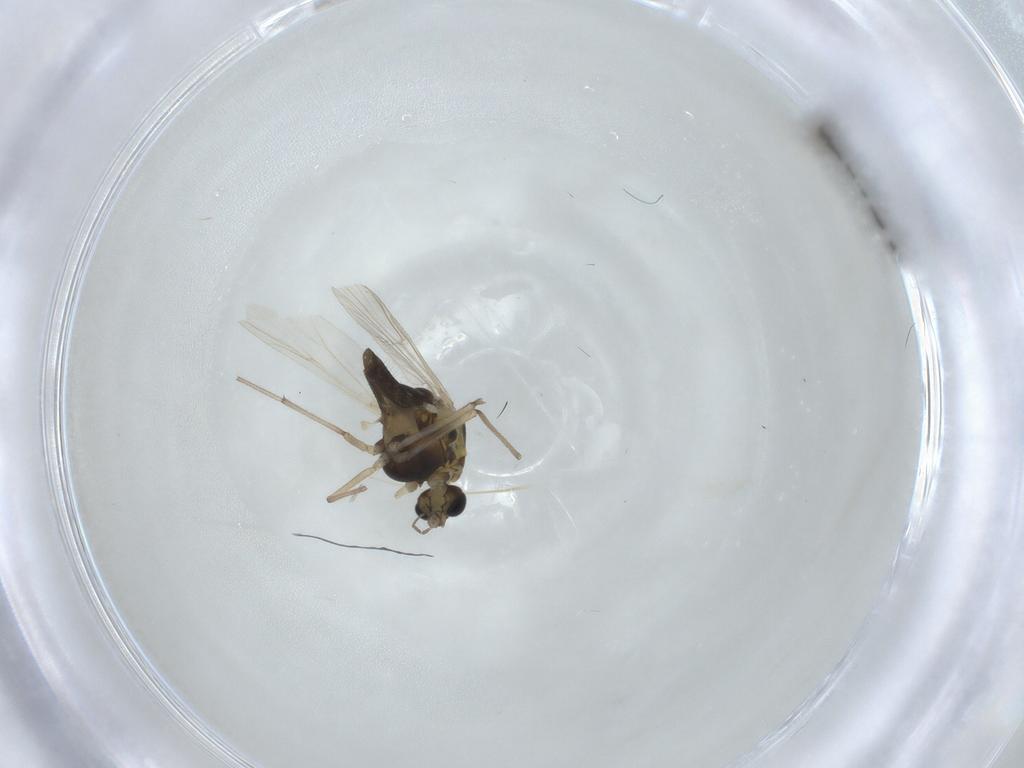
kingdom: Animalia
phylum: Arthropoda
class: Insecta
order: Diptera
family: Chironomidae
